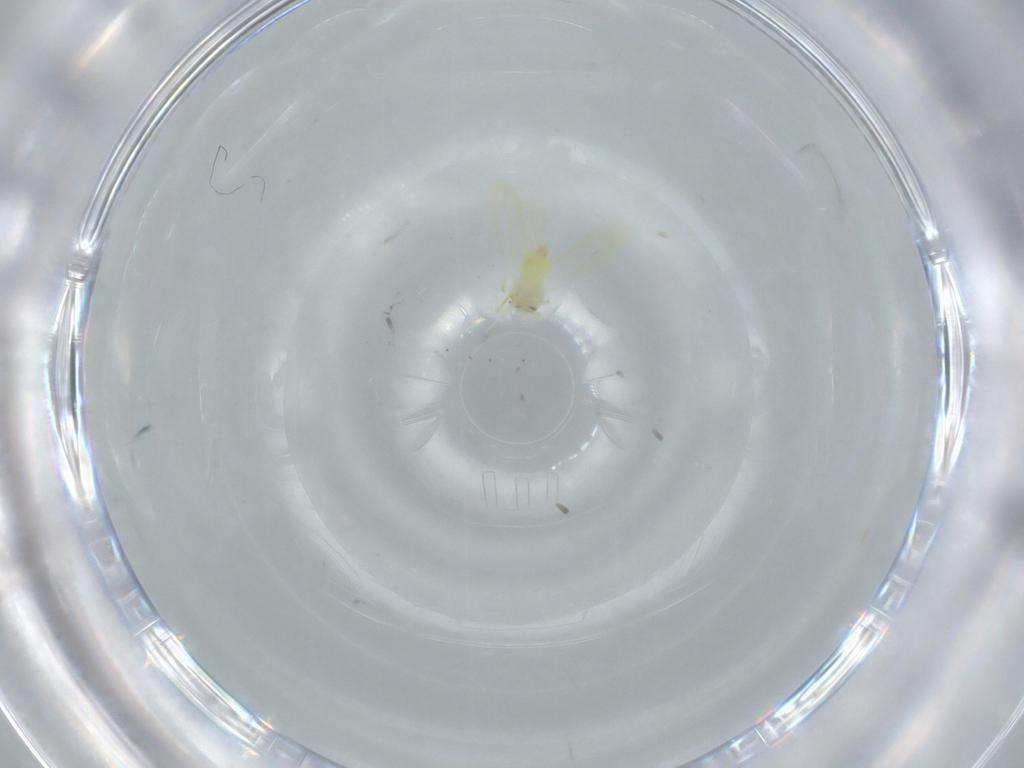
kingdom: Animalia
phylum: Arthropoda
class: Insecta
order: Hemiptera
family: Aleyrodidae
